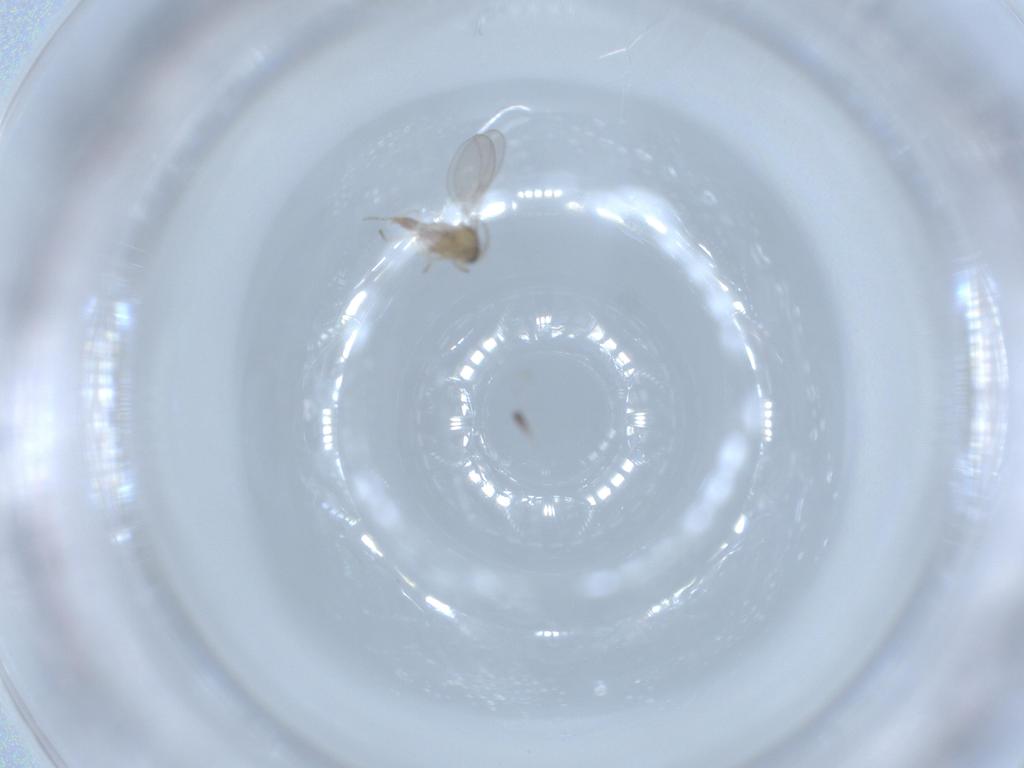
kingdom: Animalia
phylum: Arthropoda
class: Insecta
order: Diptera
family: Cecidomyiidae
